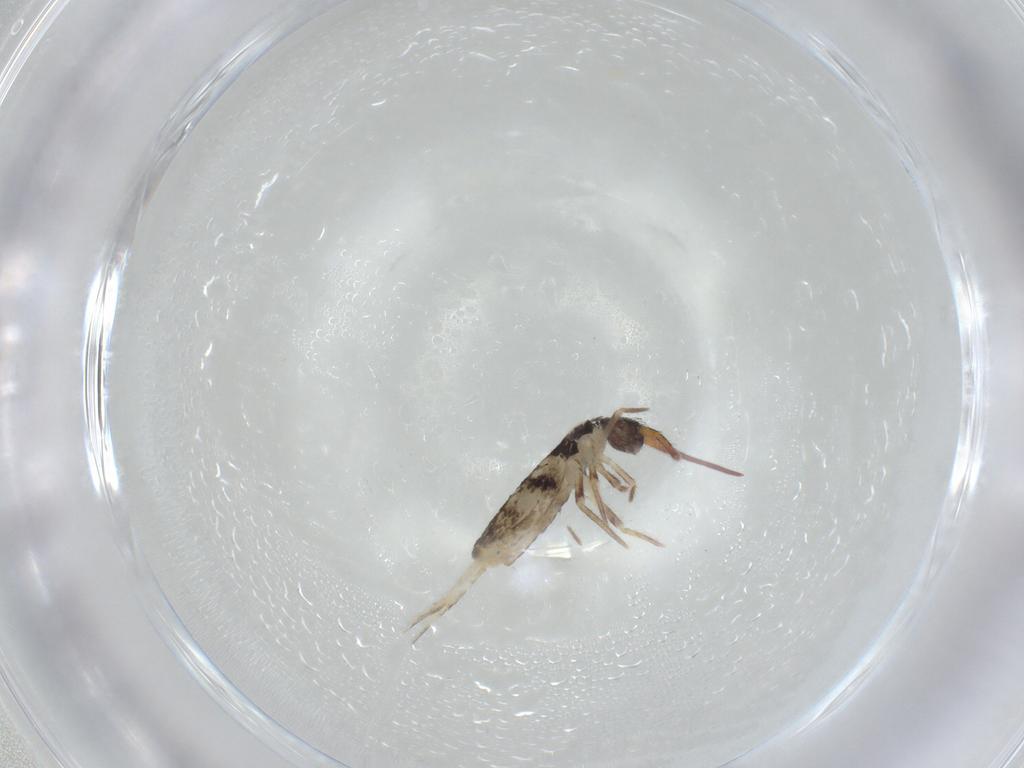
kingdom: Animalia
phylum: Arthropoda
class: Collembola
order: Entomobryomorpha
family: Entomobryidae
